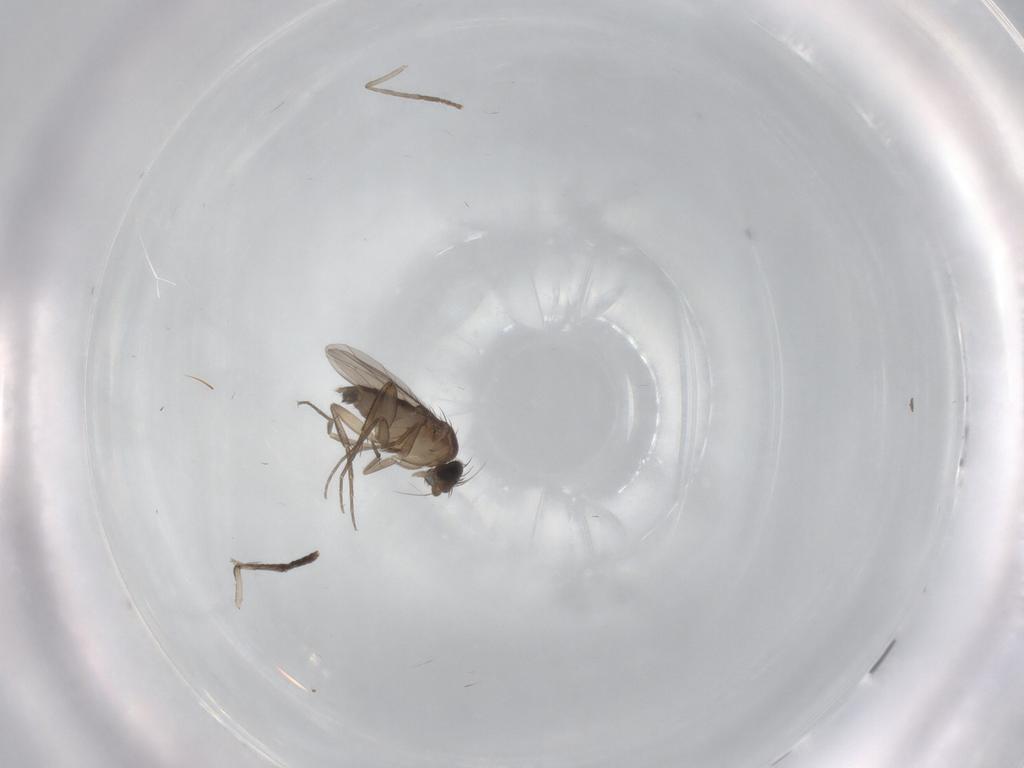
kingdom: Animalia
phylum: Arthropoda
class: Insecta
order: Diptera
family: Phoridae
